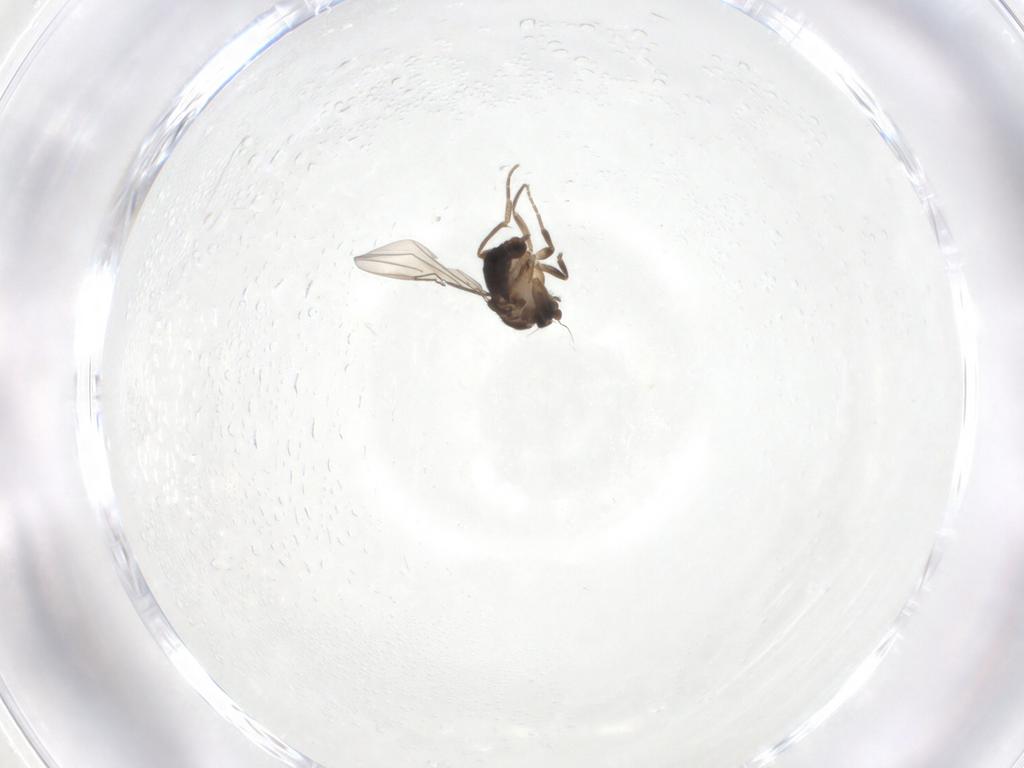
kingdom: Animalia
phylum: Arthropoda
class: Insecta
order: Diptera
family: Phoridae
